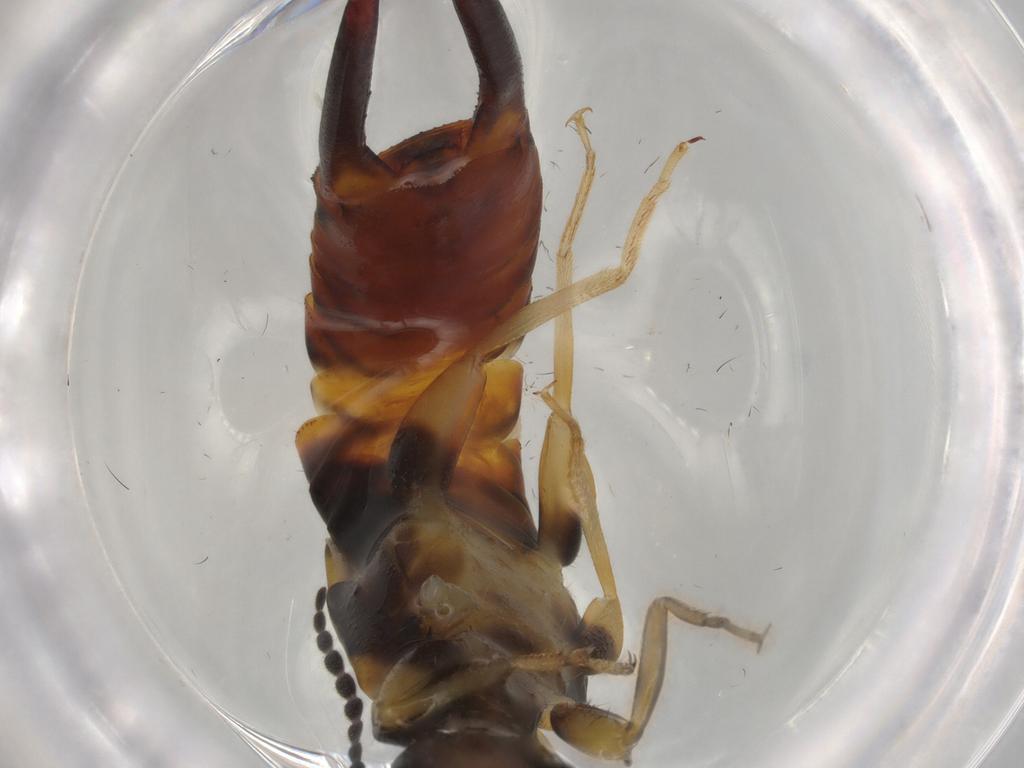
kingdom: Animalia
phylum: Arthropoda
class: Insecta
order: Dermaptera
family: Labiduridae
